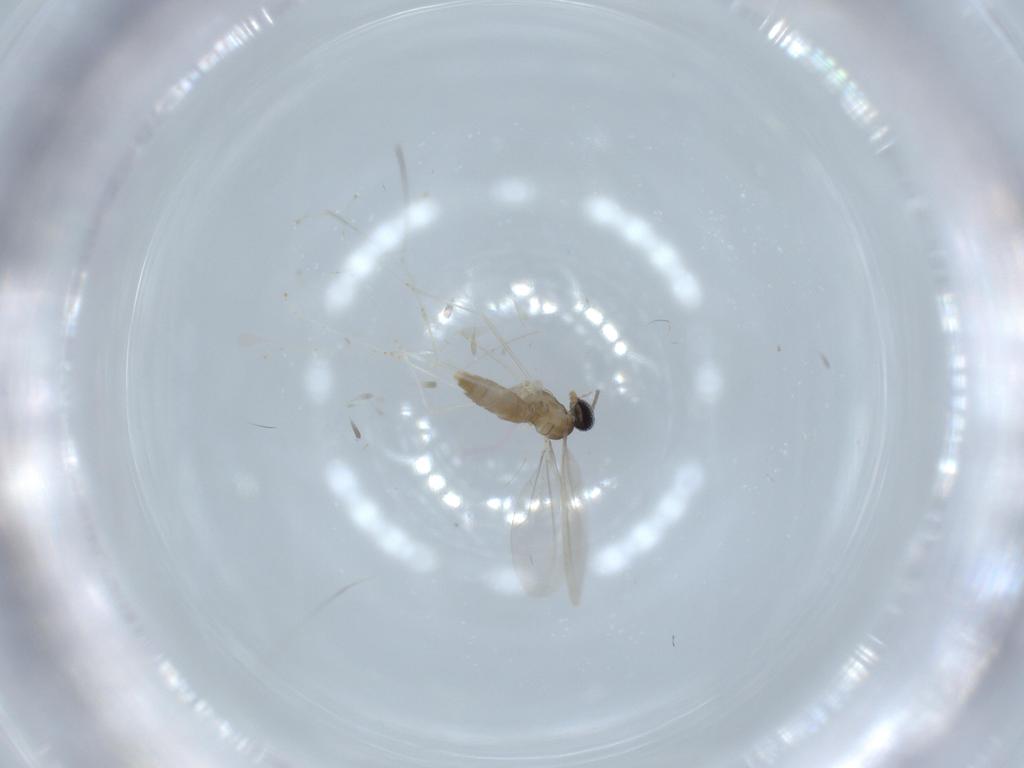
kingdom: Animalia
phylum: Arthropoda
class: Insecta
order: Diptera
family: Cecidomyiidae
